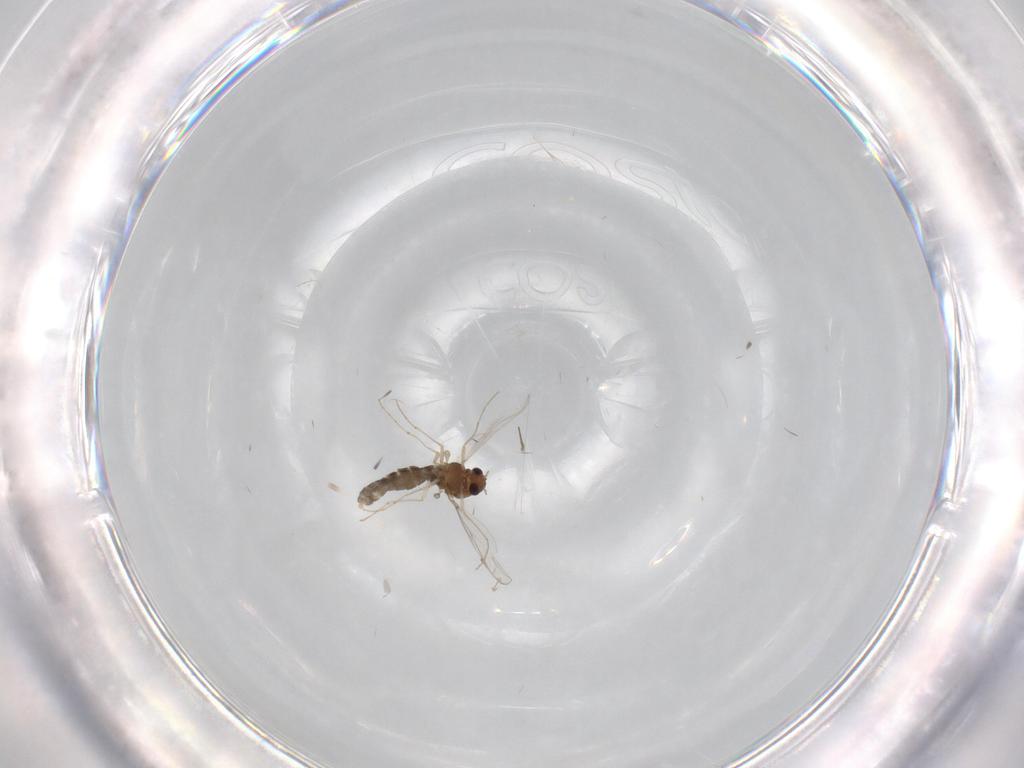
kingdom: Animalia
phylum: Arthropoda
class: Insecta
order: Diptera
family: Chironomidae
